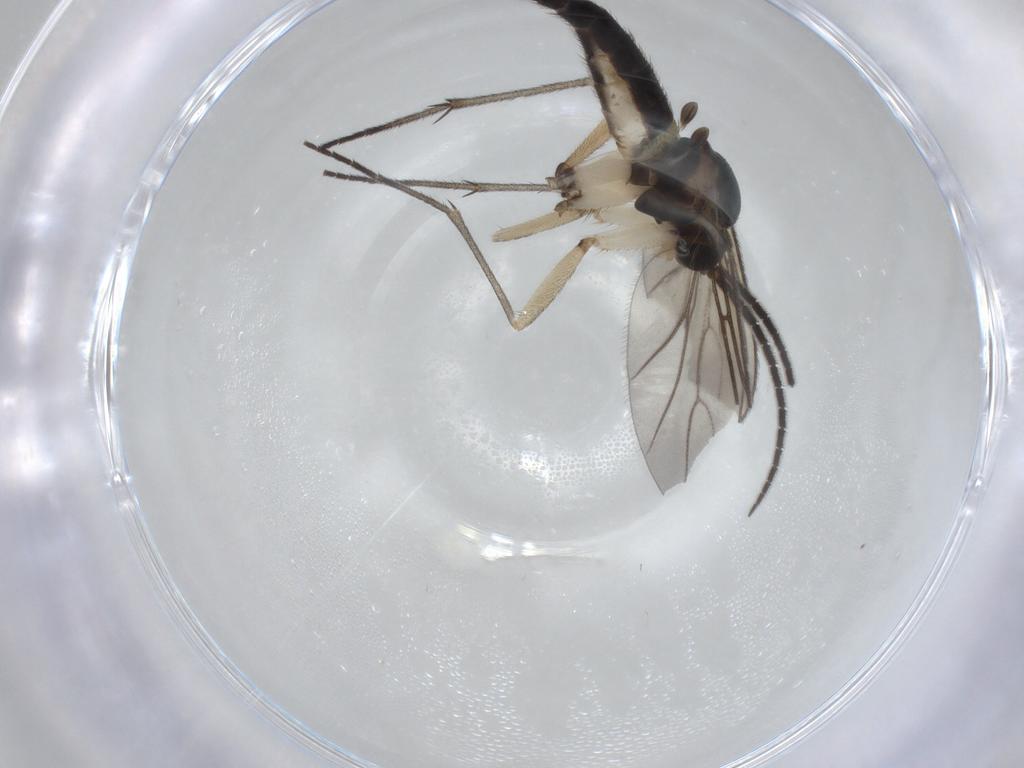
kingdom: Animalia
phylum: Arthropoda
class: Insecta
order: Diptera
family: Sciaridae
